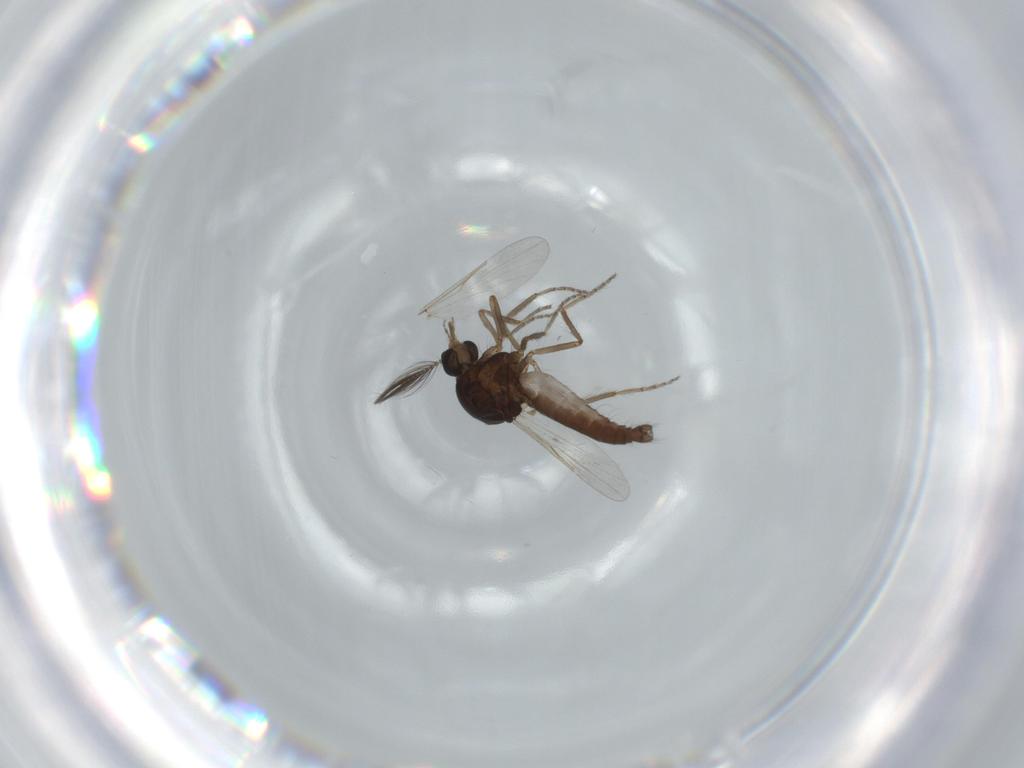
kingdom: Animalia
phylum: Arthropoda
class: Insecta
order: Diptera
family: Ceratopogonidae
